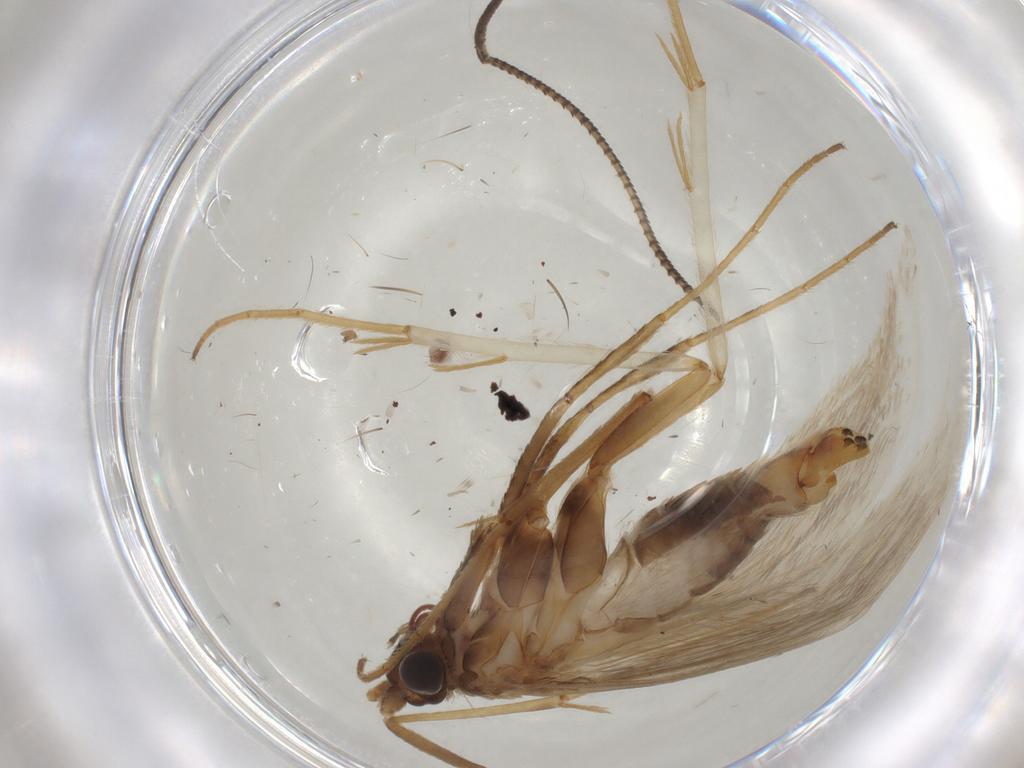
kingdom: Animalia
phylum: Arthropoda
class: Insecta
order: Lepidoptera
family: Adelidae
